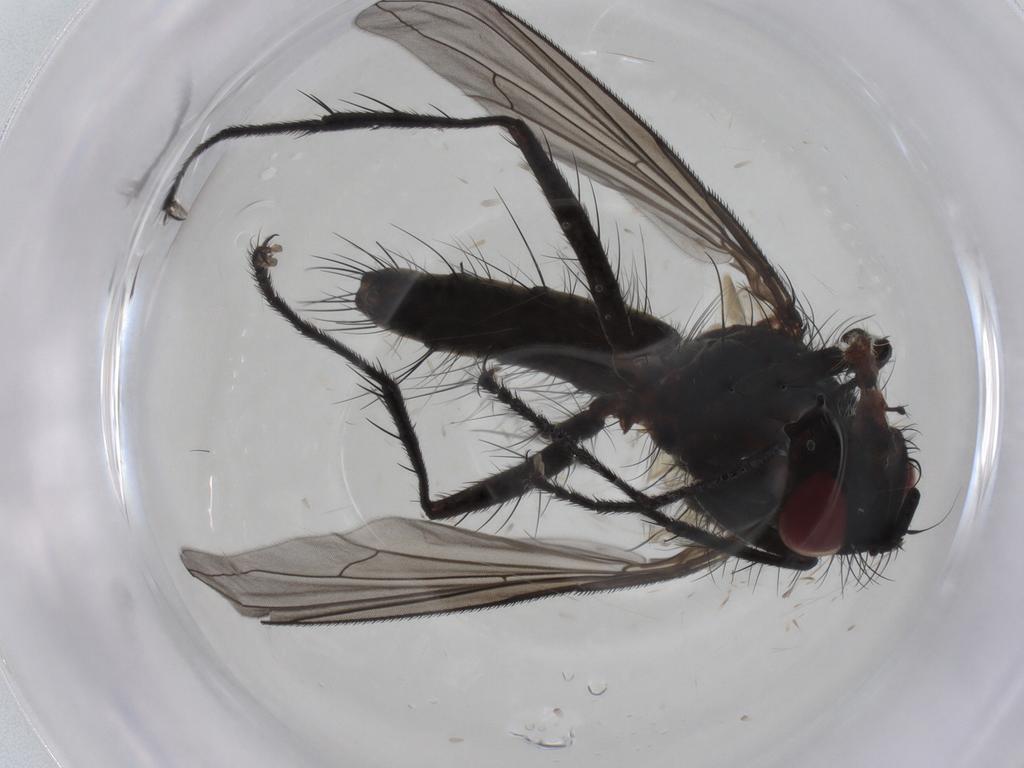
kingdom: Animalia
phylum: Arthropoda
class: Insecta
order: Diptera
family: Tachinidae
